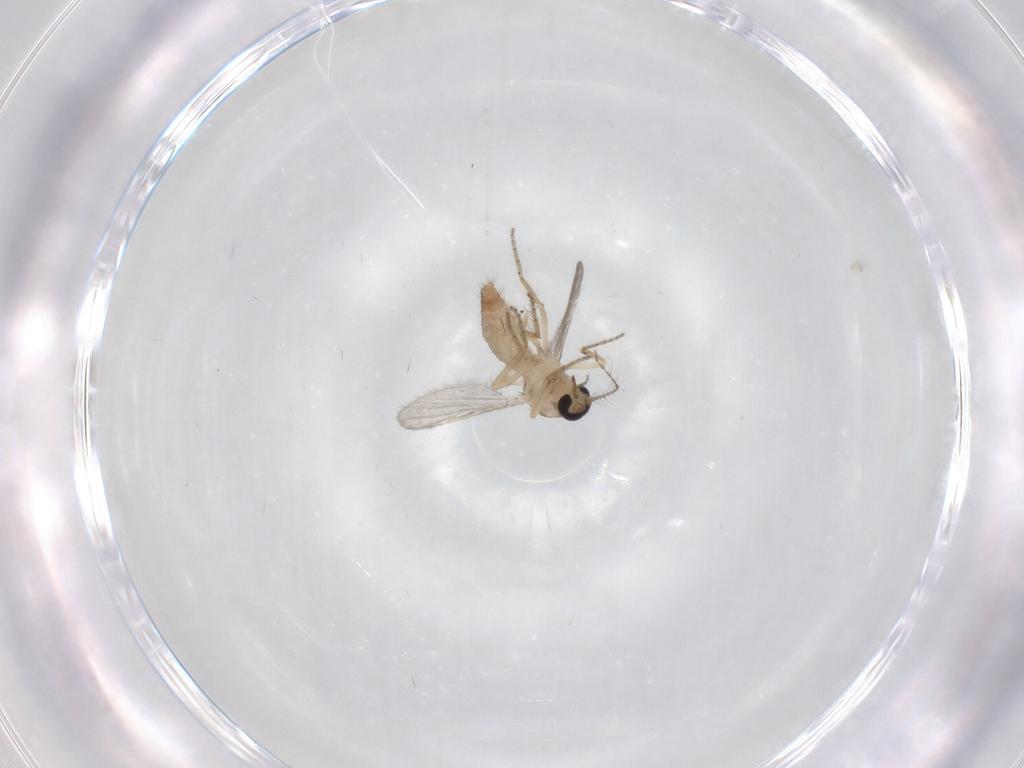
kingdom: Animalia
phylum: Arthropoda
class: Insecta
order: Diptera
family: Ceratopogonidae
